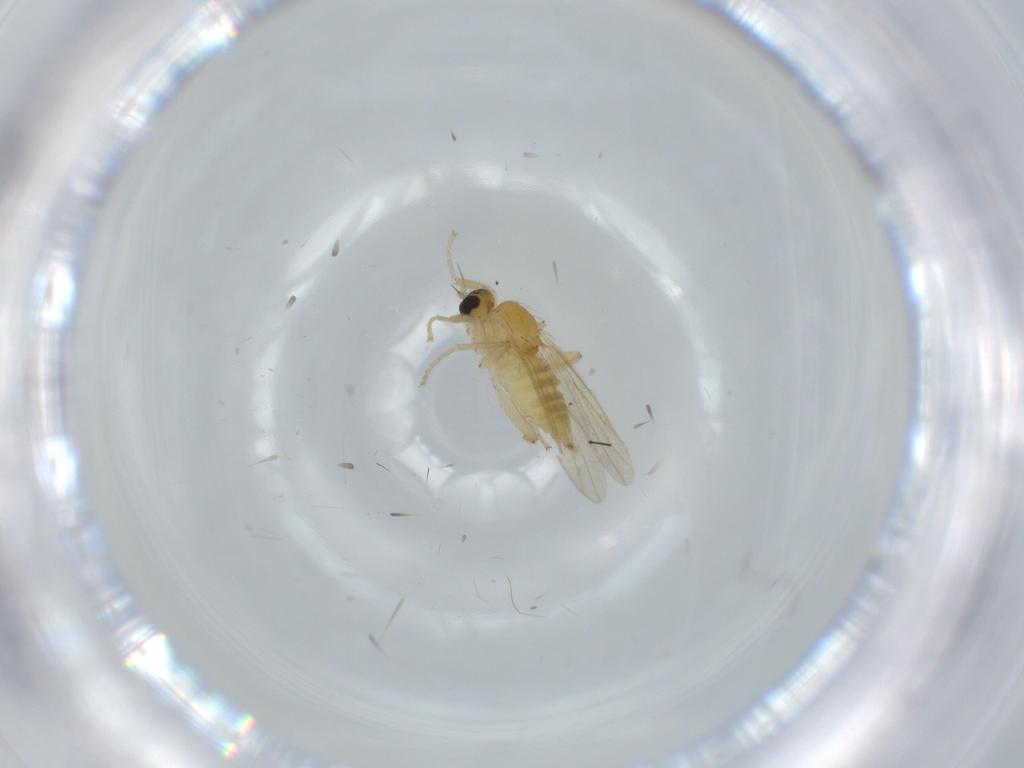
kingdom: Animalia
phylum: Arthropoda
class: Insecta
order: Diptera
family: Hybotidae
